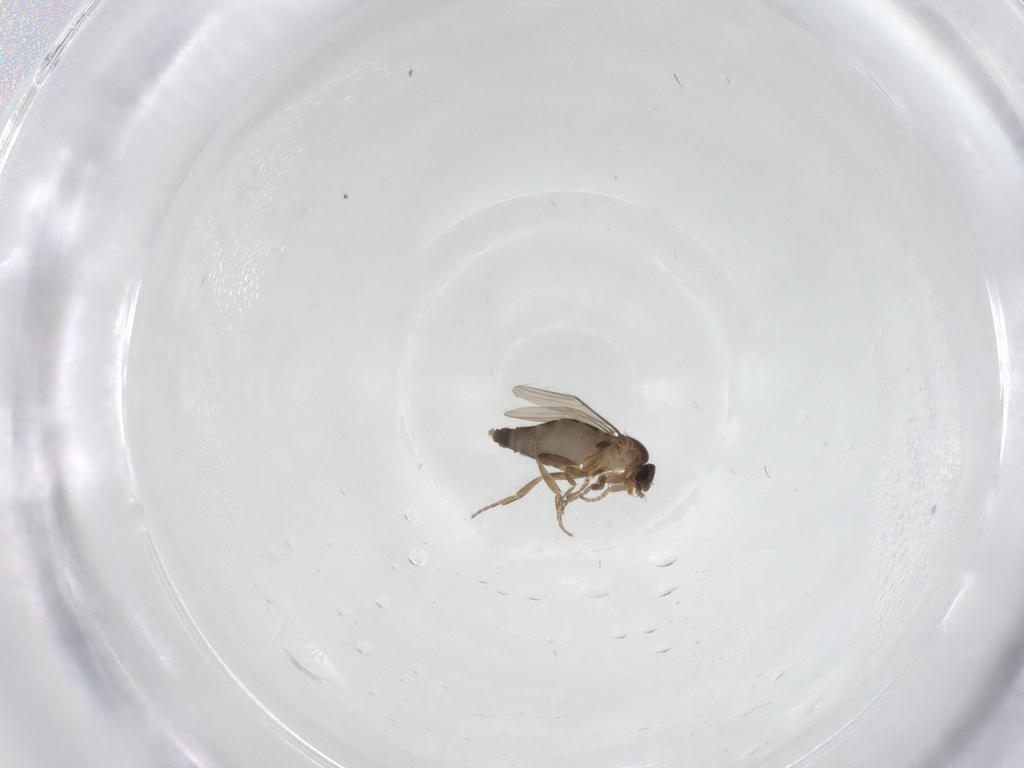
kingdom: Animalia
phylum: Arthropoda
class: Insecta
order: Diptera
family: Phoridae
